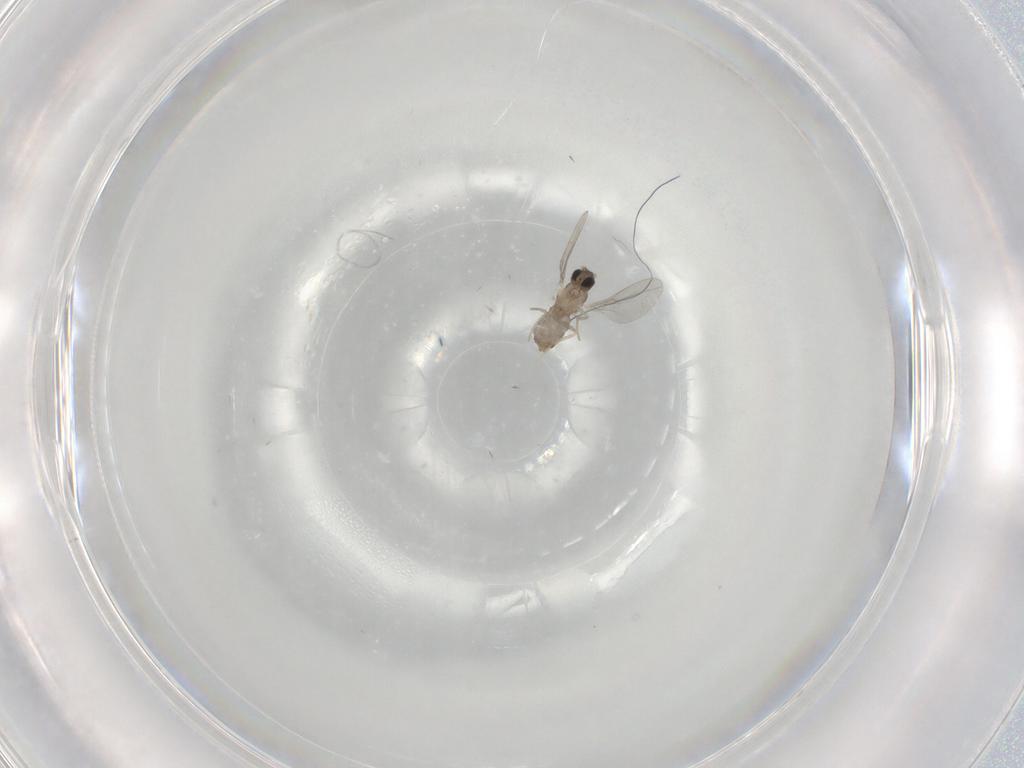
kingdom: Animalia
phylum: Arthropoda
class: Insecta
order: Diptera
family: Cecidomyiidae
